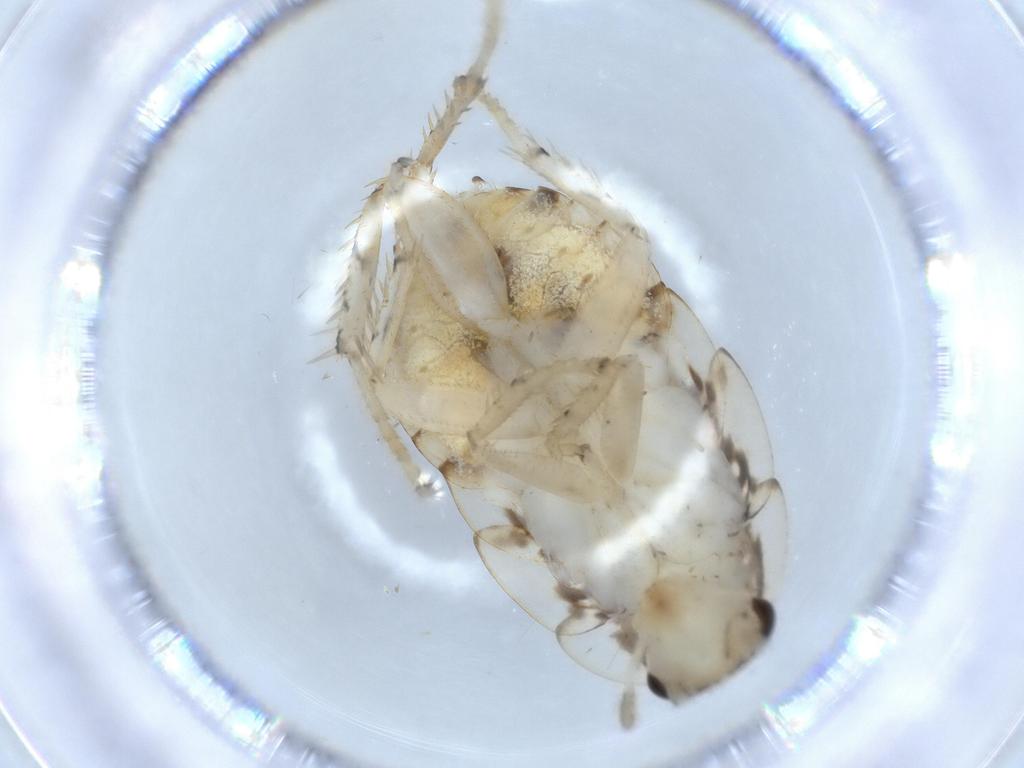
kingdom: Animalia
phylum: Arthropoda
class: Insecta
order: Blattodea
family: Ectobiidae
